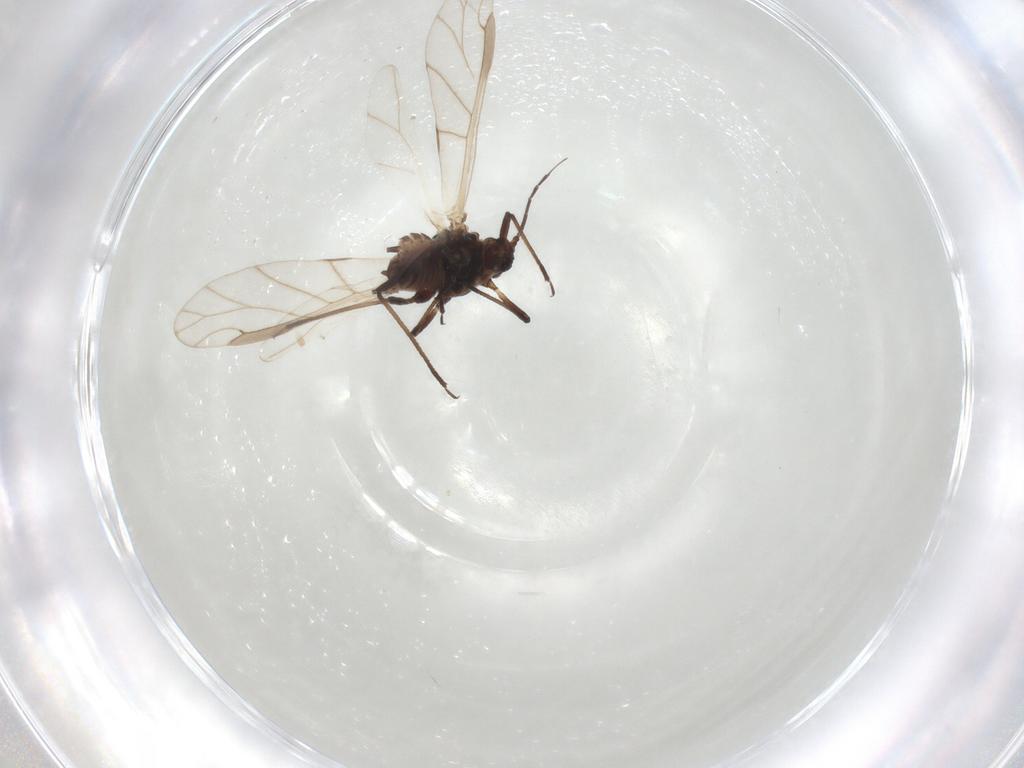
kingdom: Animalia
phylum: Arthropoda
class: Insecta
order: Hemiptera
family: Aphididae
